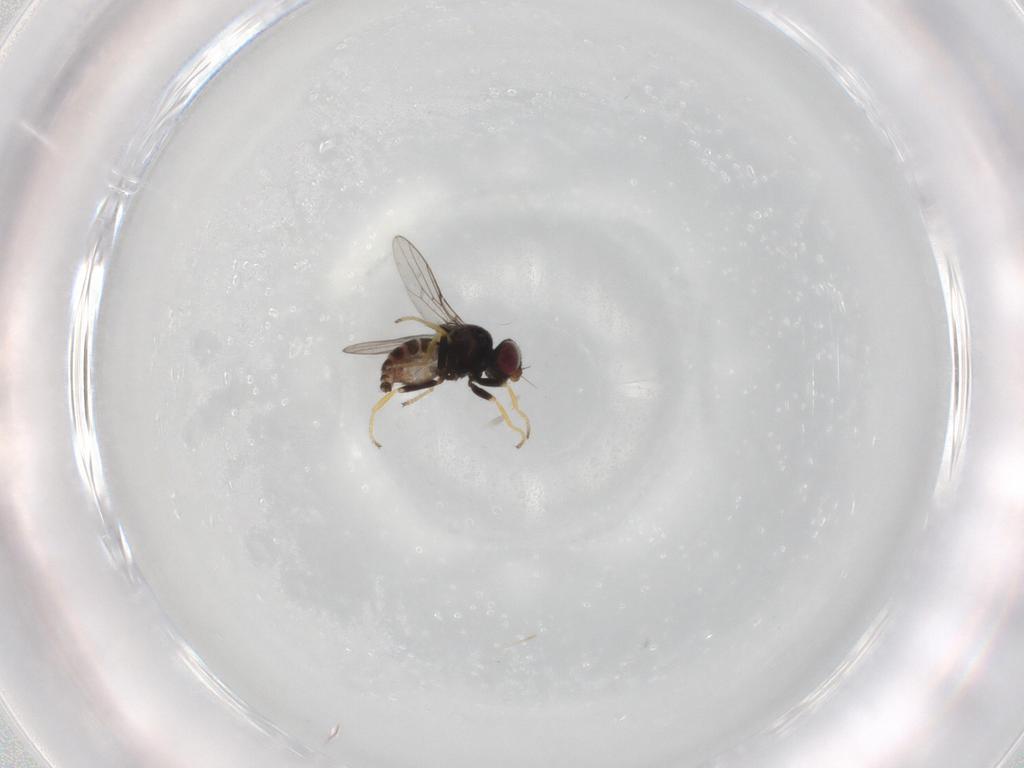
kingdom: Animalia
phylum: Arthropoda
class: Insecta
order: Diptera
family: Chloropidae
